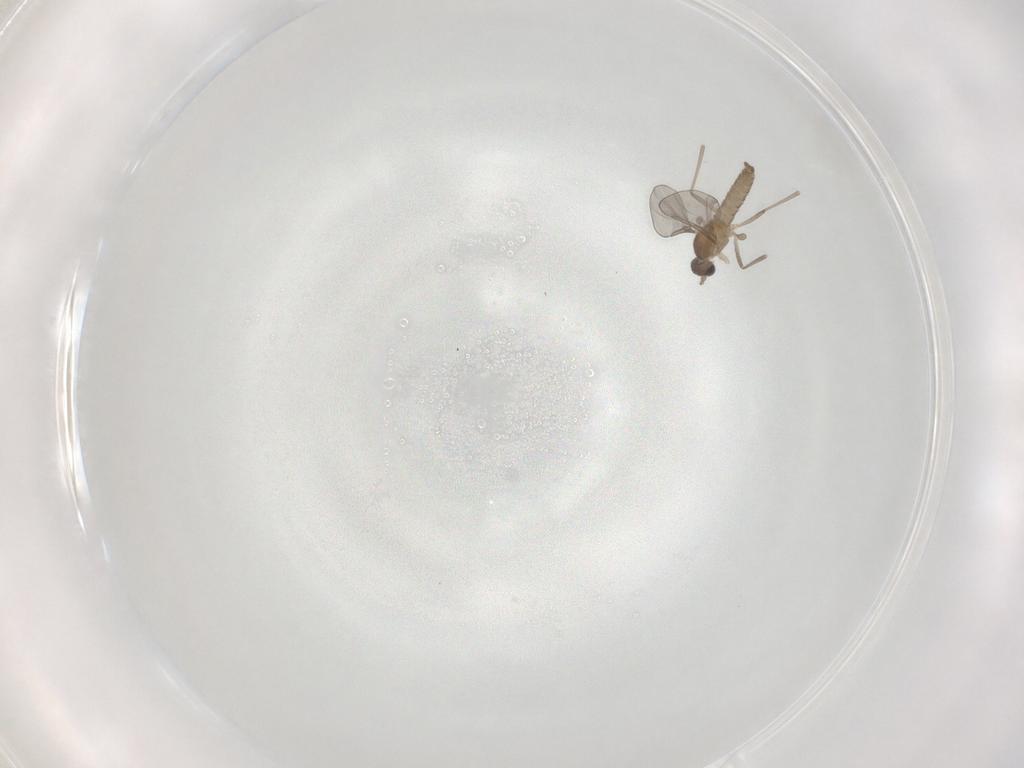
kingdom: Animalia
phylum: Arthropoda
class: Insecta
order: Diptera
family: Cecidomyiidae
